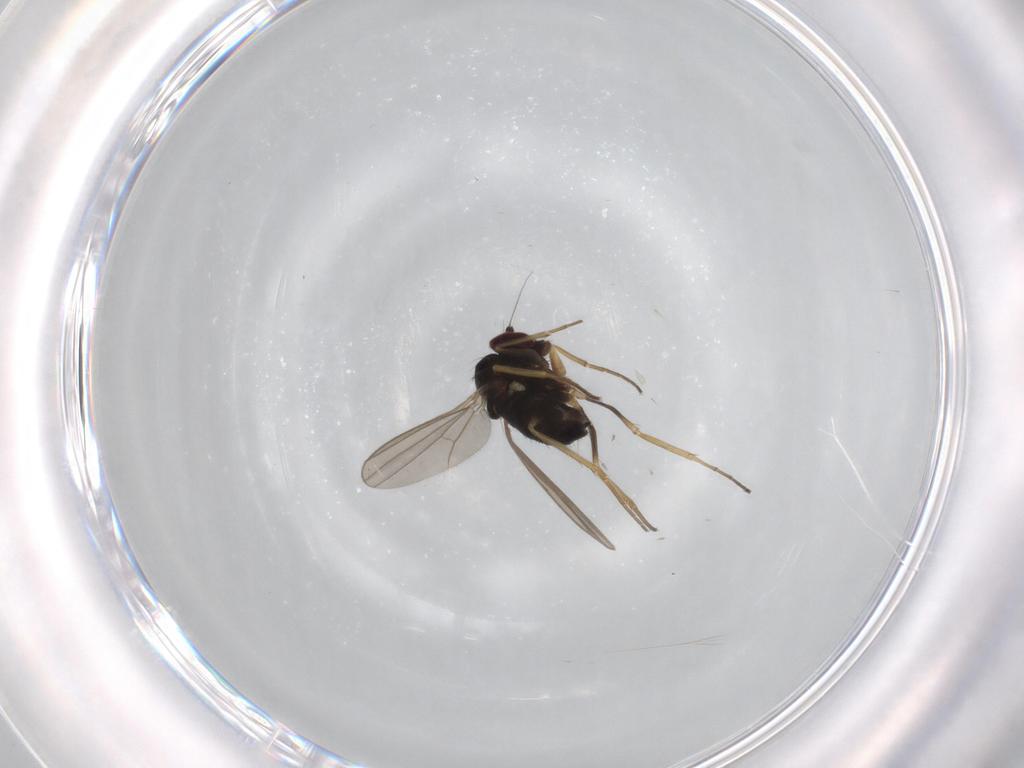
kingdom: Animalia
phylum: Arthropoda
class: Insecta
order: Diptera
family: Dolichopodidae
